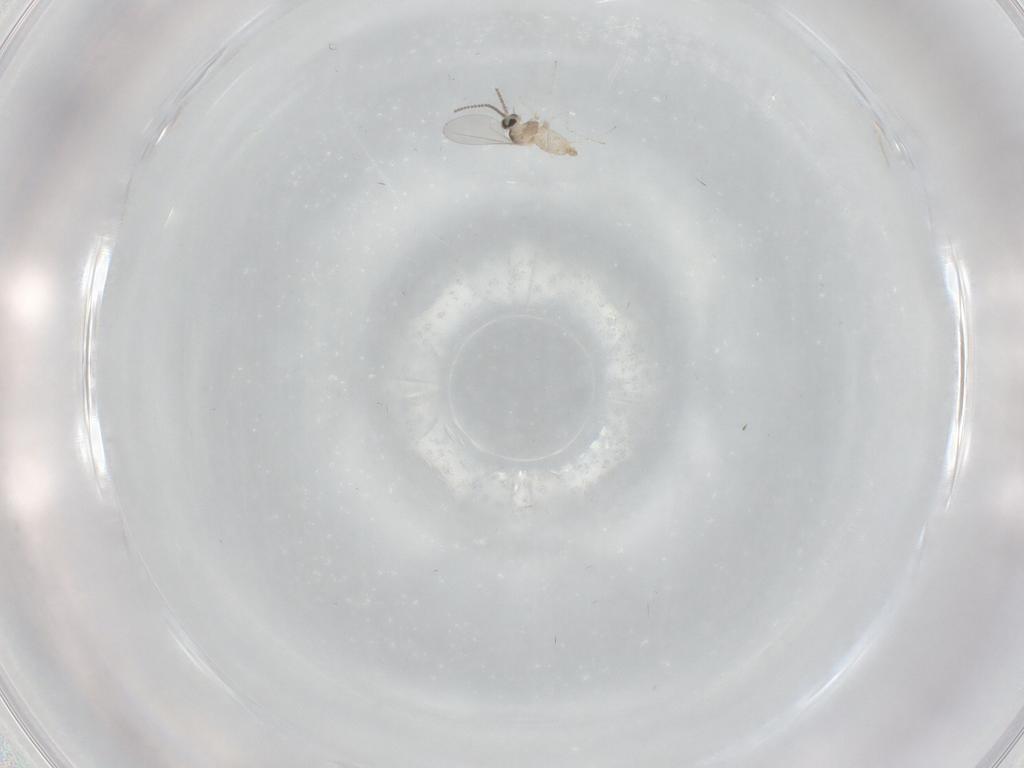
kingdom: Animalia
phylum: Arthropoda
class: Insecta
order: Diptera
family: Cecidomyiidae
